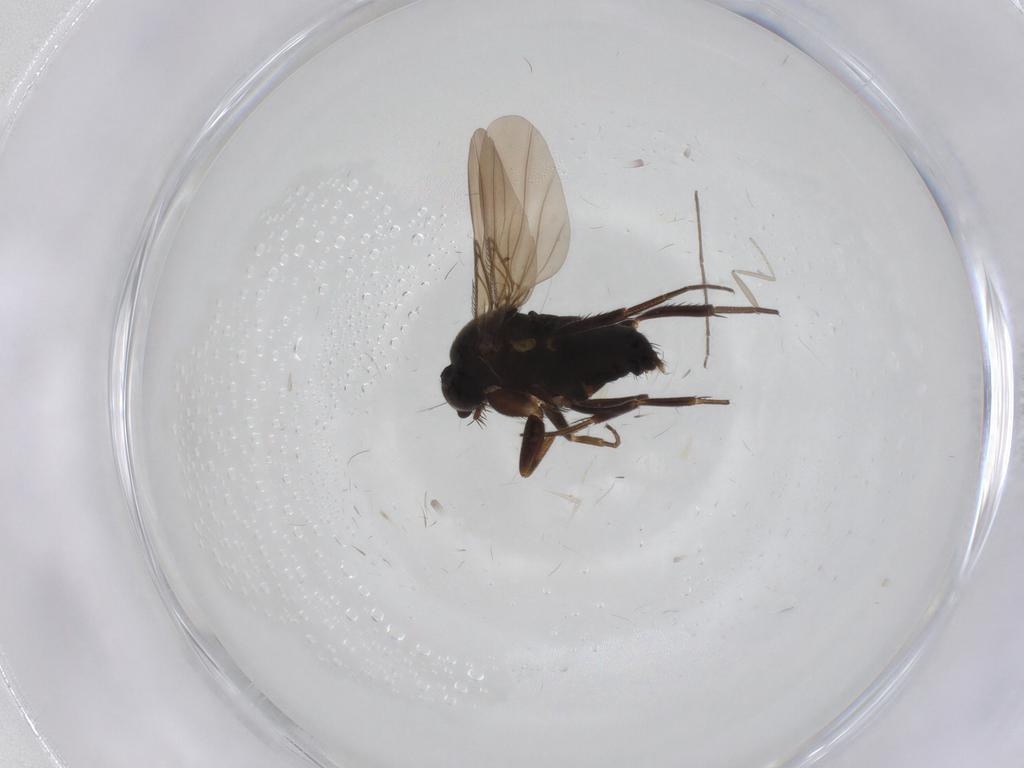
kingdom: Animalia
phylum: Arthropoda
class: Insecta
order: Diptera
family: Phoridae
